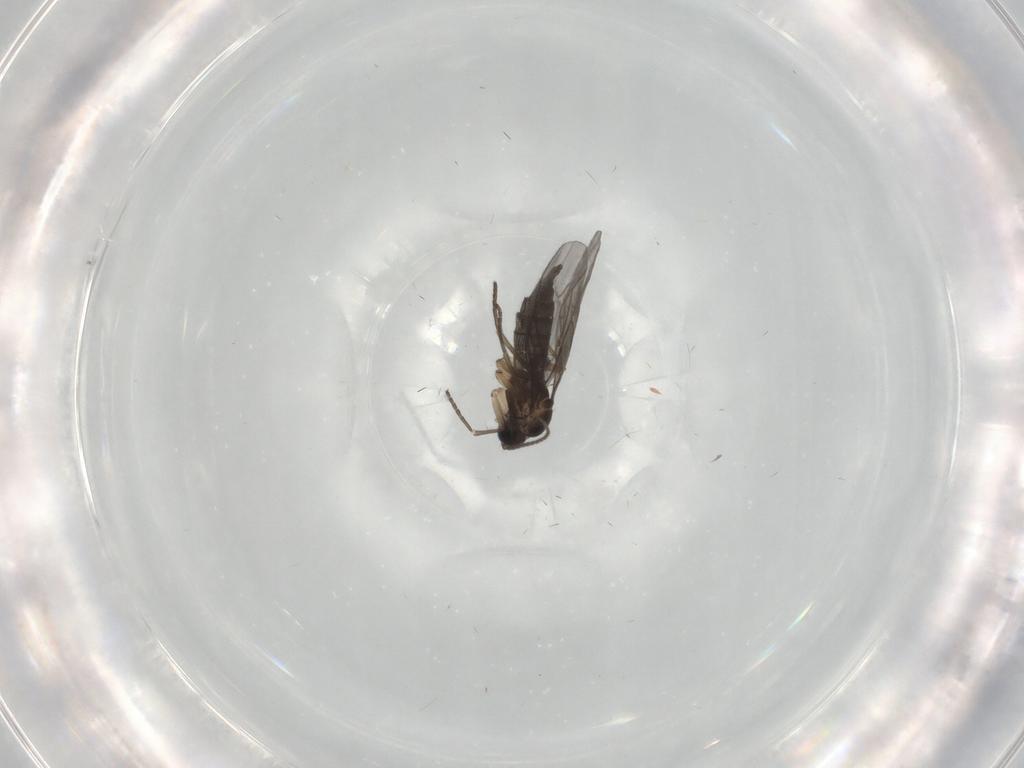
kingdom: Animalia
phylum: Arthropoda
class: Insecta
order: Diptera
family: Sciaridae
